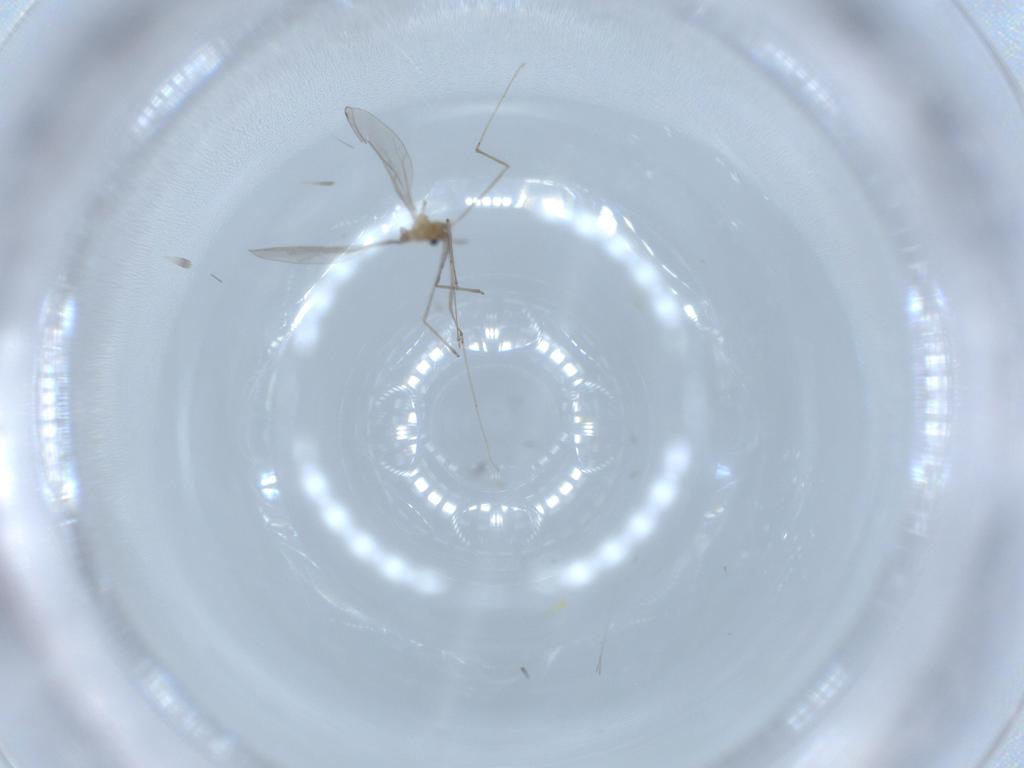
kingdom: Animalia
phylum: Arthropoda
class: Insecta
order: Diptera
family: Cecidomyiidae
